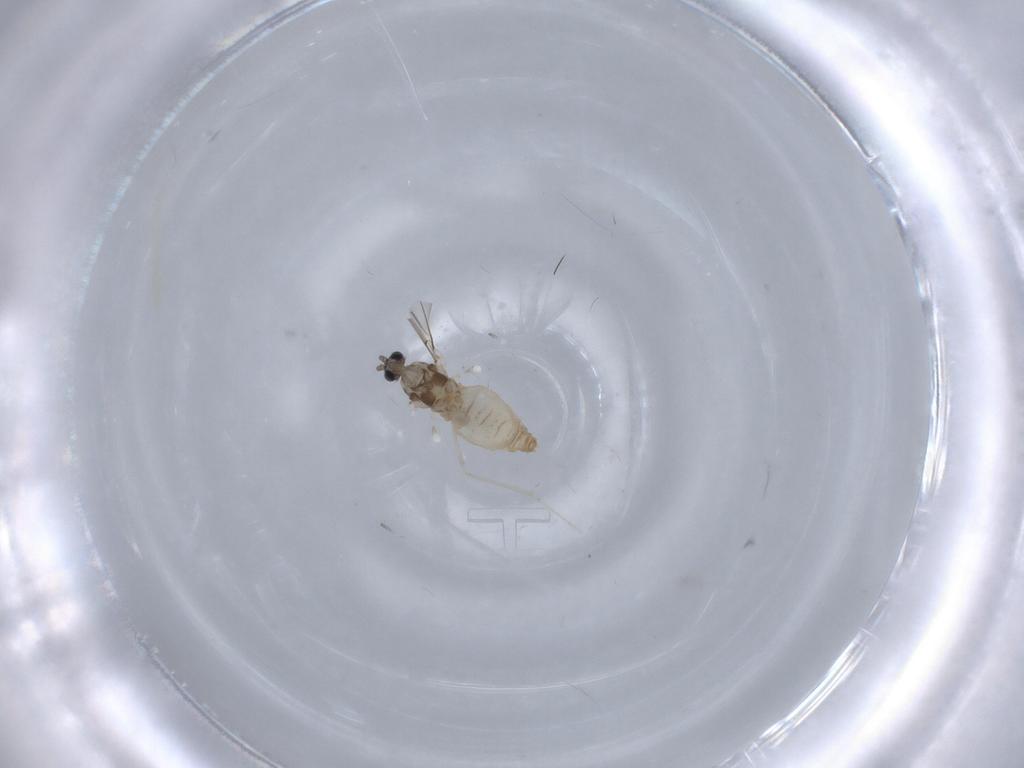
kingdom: Animalia
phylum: Arthropoda
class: Insecta
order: Diptera
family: Cecidomyiidae
